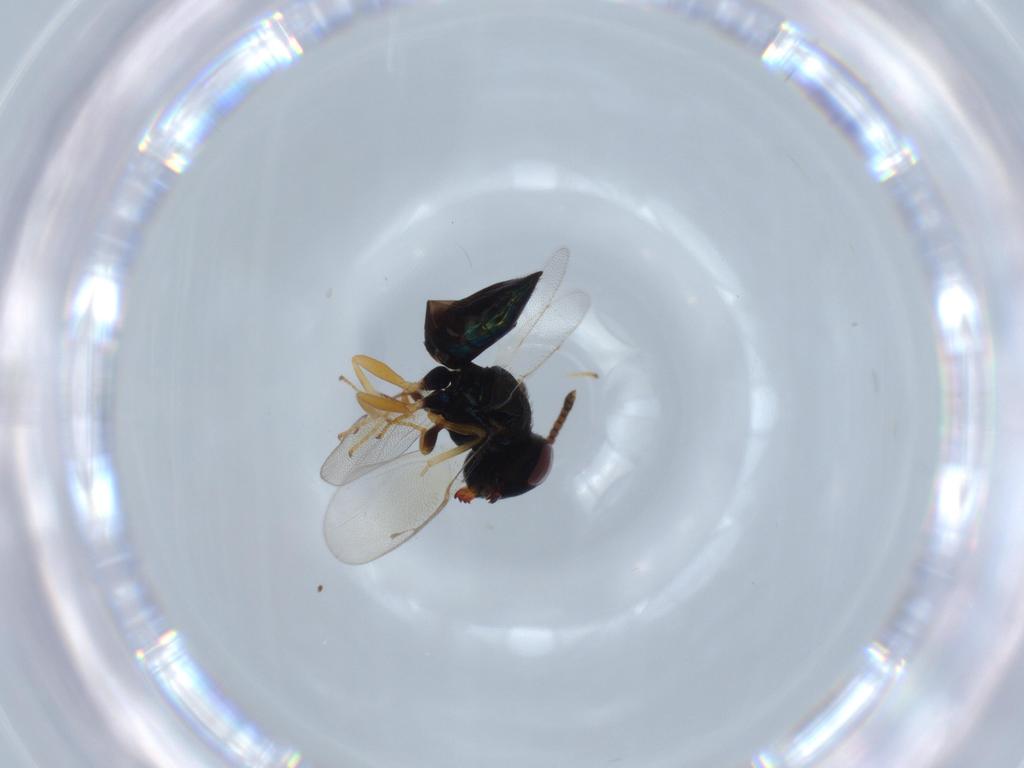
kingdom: Animalia
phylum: Arthropoda
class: Insecta
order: Hymenoptera
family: Pteromalidae
